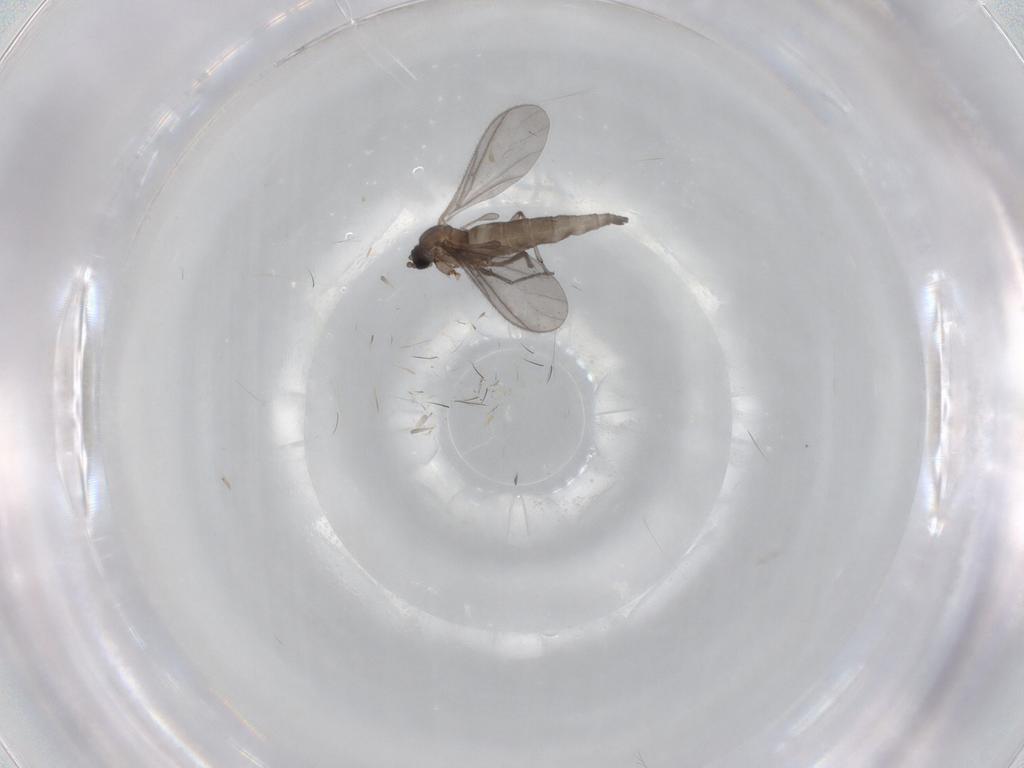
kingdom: Animalia
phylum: Arthropoda
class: Insecta
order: Diptera
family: Sciaridae
